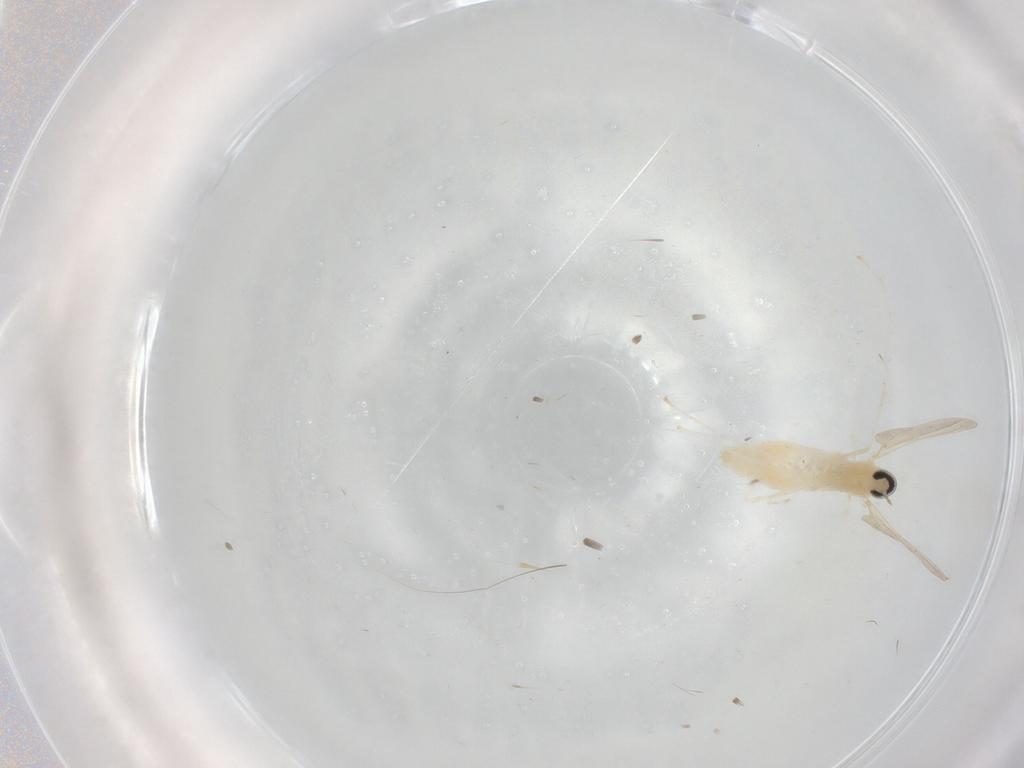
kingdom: Animalia
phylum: Arthropoda
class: Insecta
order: Diptera
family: Cecidomyiidae
